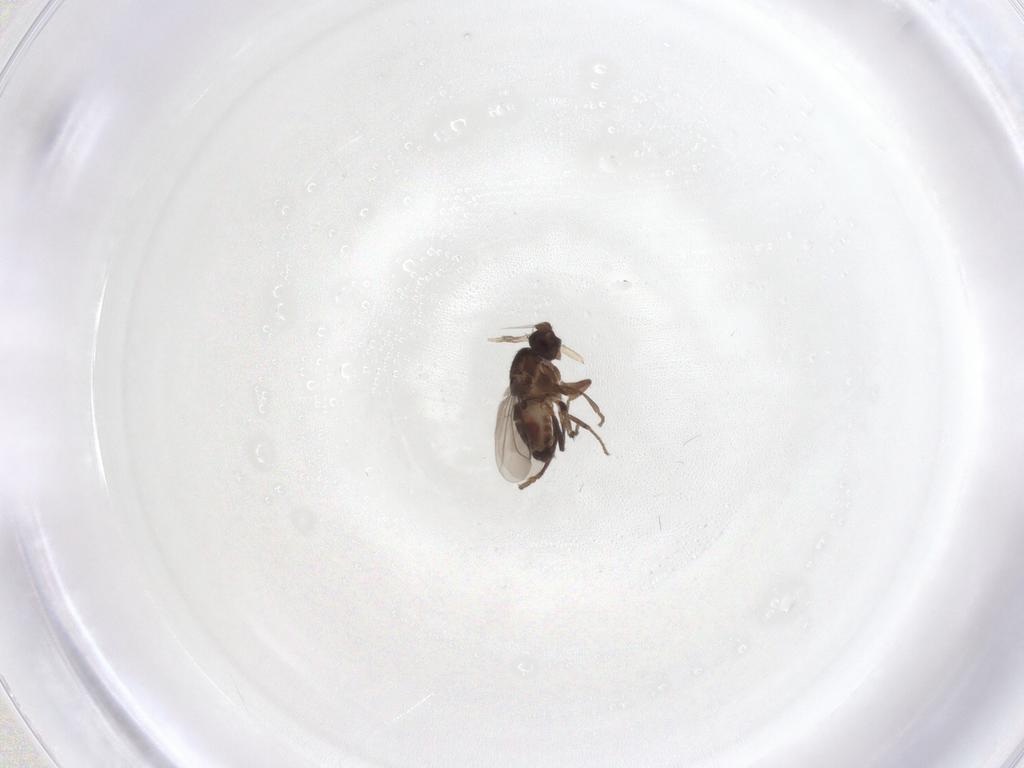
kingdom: Animalia
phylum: Arthropoda
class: Insecta
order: Diptera
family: Sphaeroceridae
